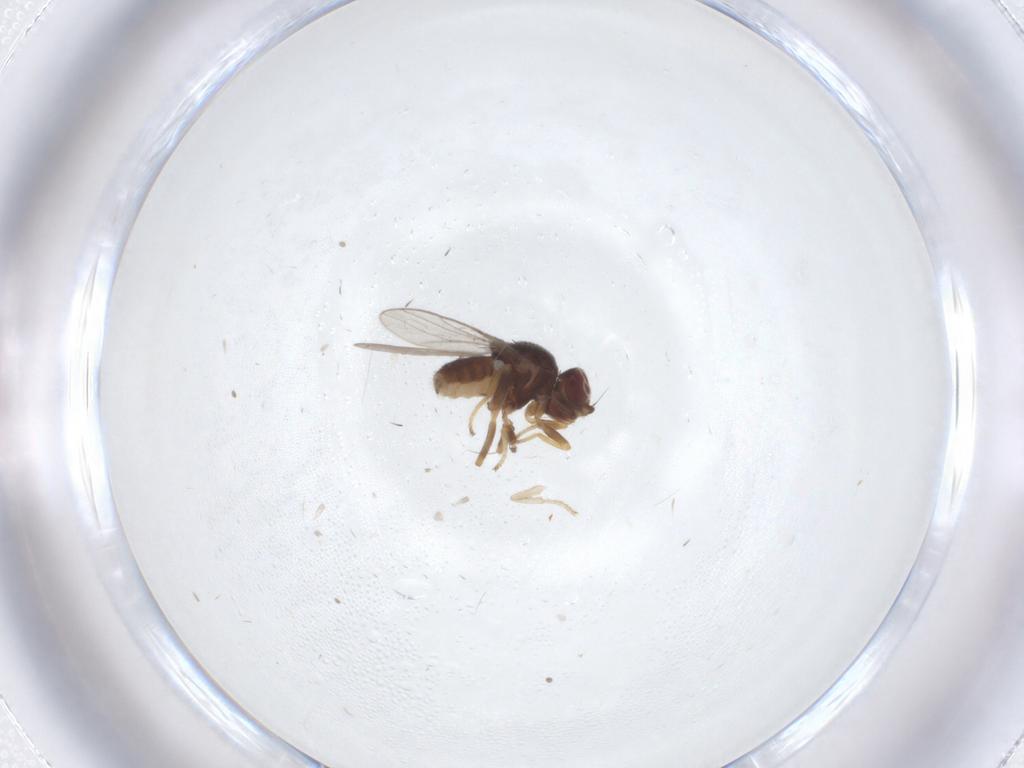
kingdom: Animalia
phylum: Arthropoda
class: Insecta
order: Diptera
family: Chloropidae
